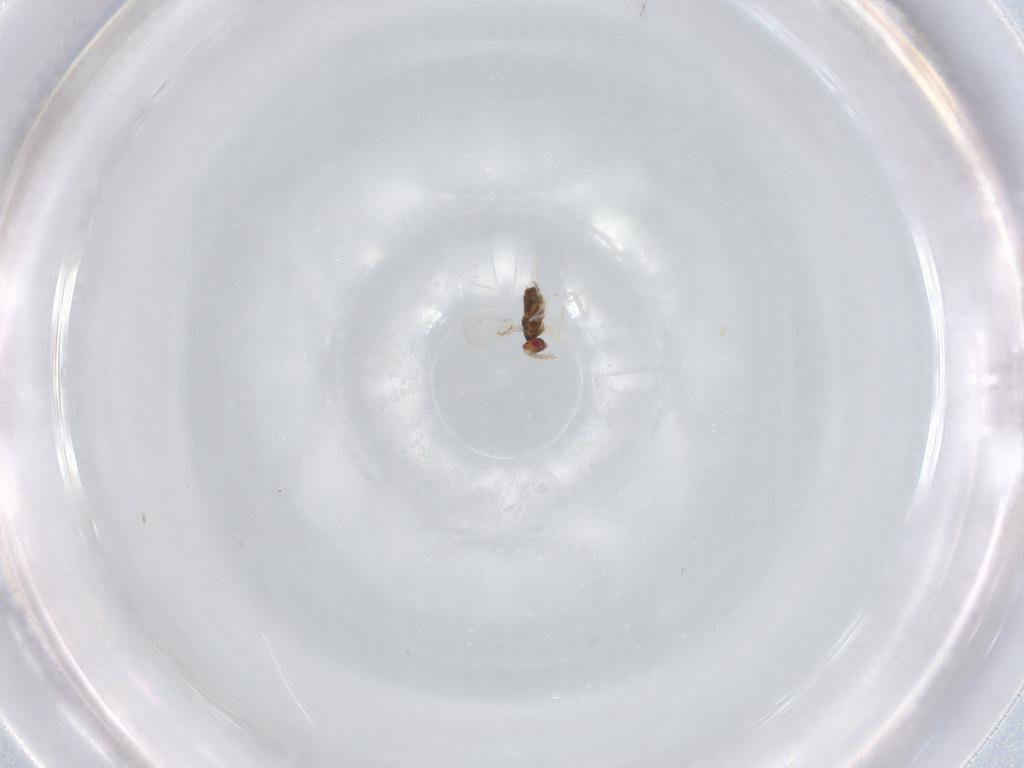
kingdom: Animalia
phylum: Arthropoda
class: Insecta
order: Hymenoptera
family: Trichogrammatidae
